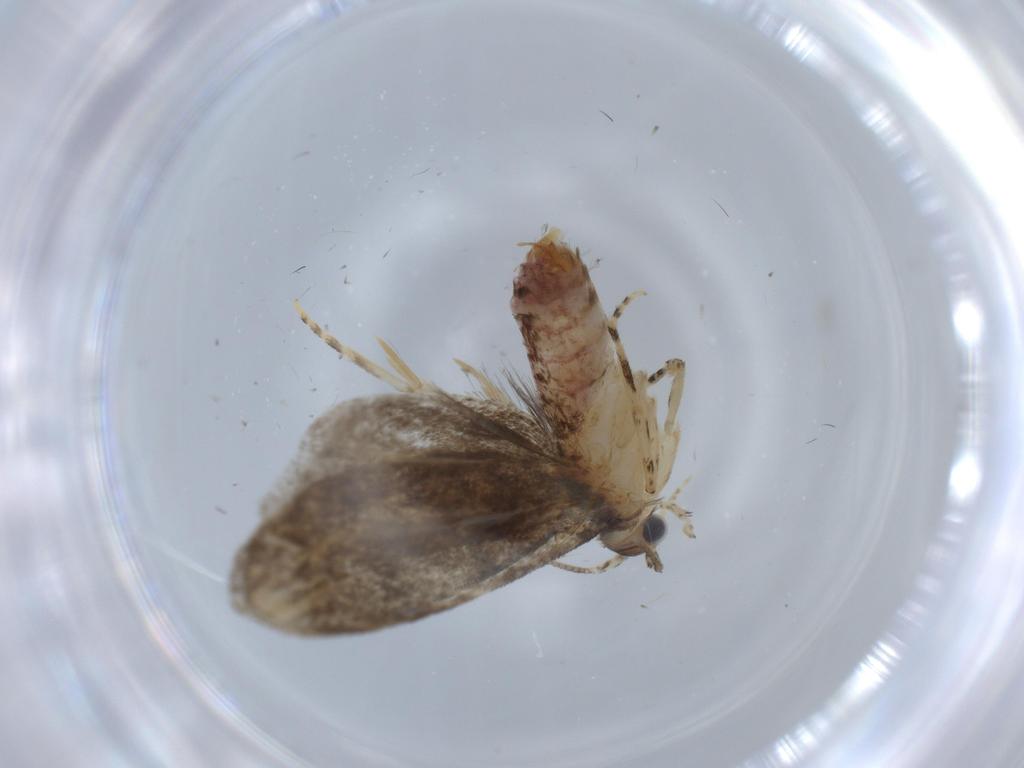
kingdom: Animalia
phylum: Arthropoda
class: Insecta
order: Lepidoptera
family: Tineidae
